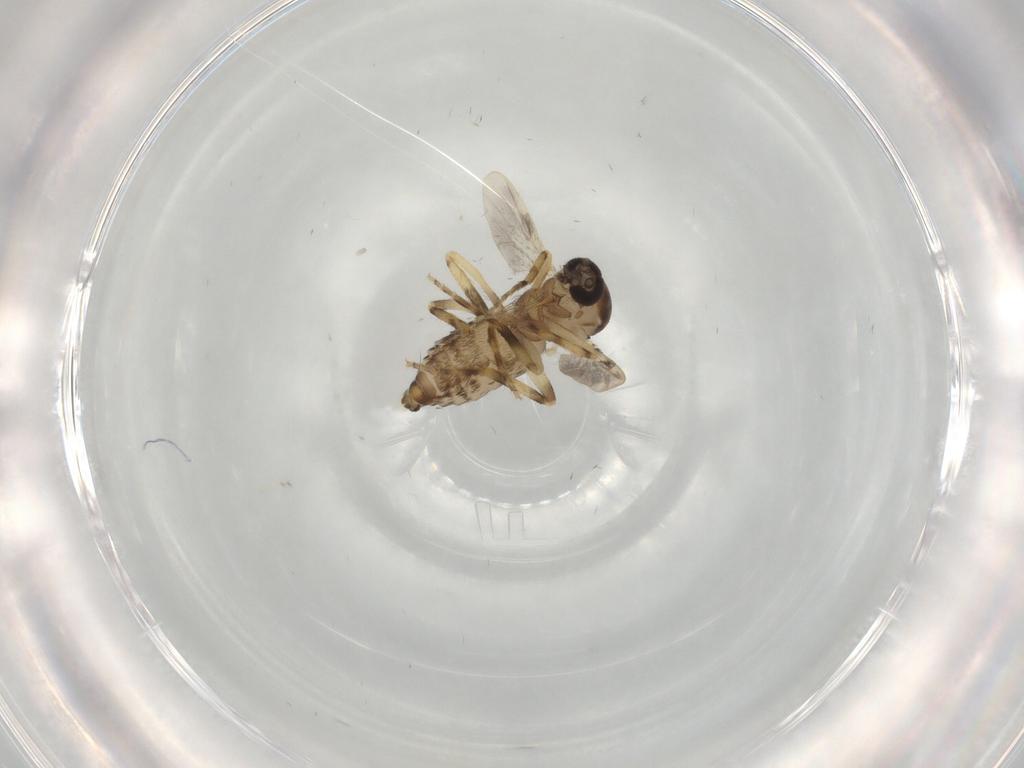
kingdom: Animalia
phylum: Arthropoda
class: Insecta
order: Diptera
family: Ceratopogonidae
